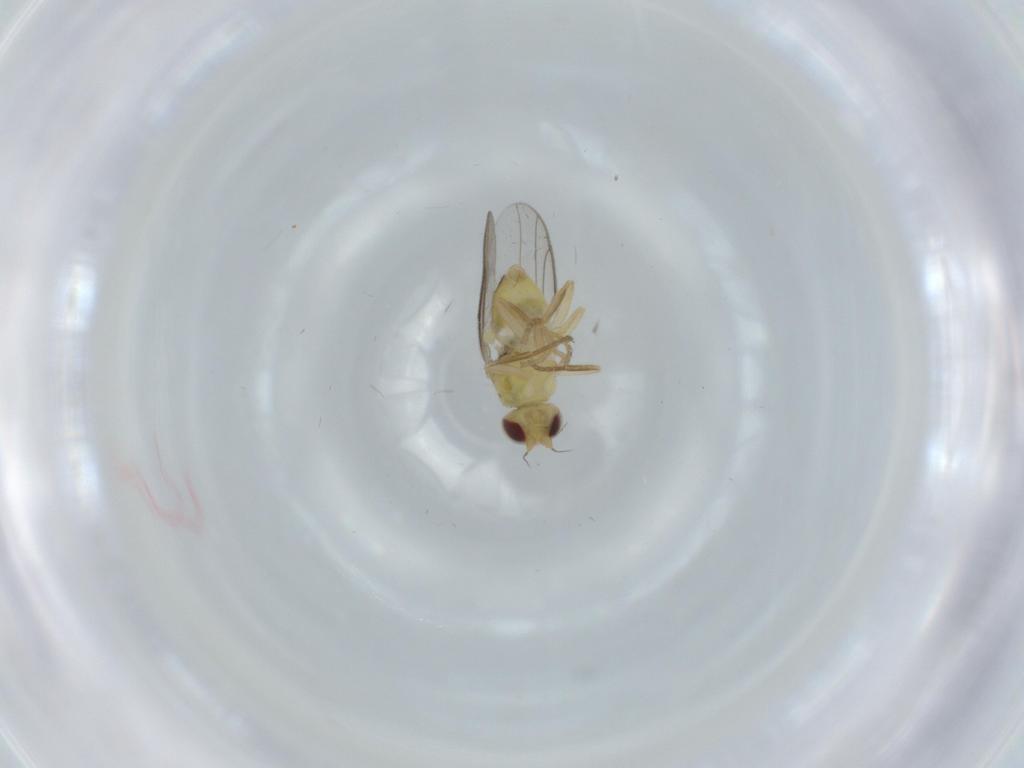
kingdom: Animalia
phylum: Arthropoda
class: Insecta
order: Diptera
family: Chloropidae
